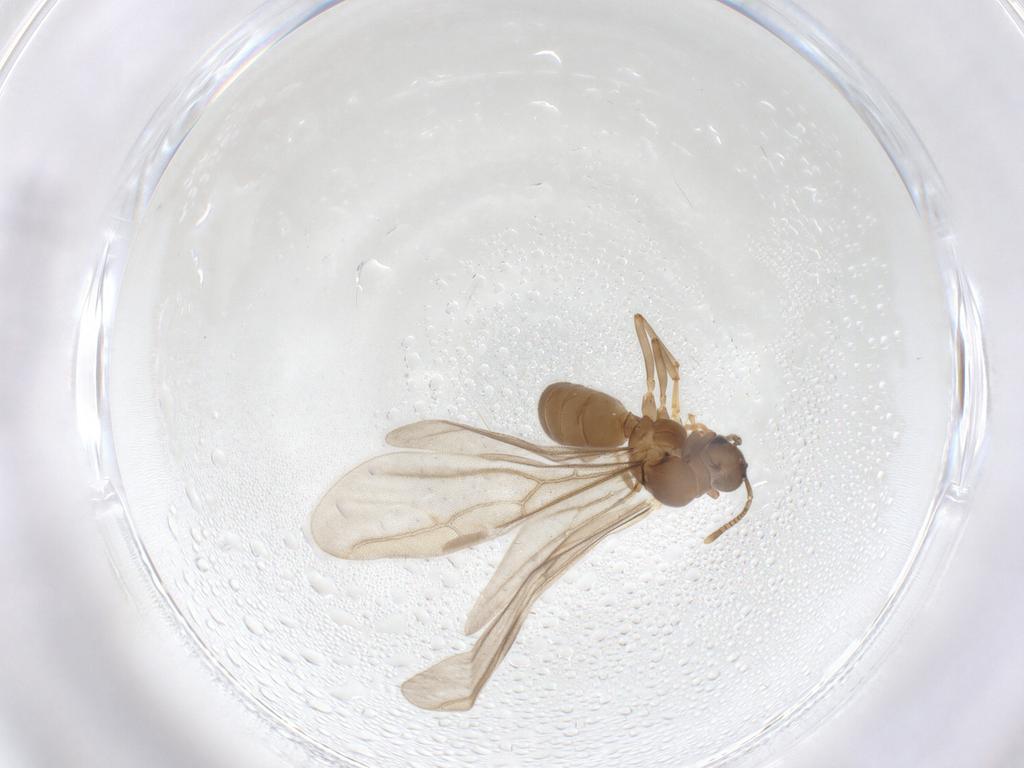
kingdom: Animalia
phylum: Arthropoda
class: Insecta
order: Hymenoptera
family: Formicidae
